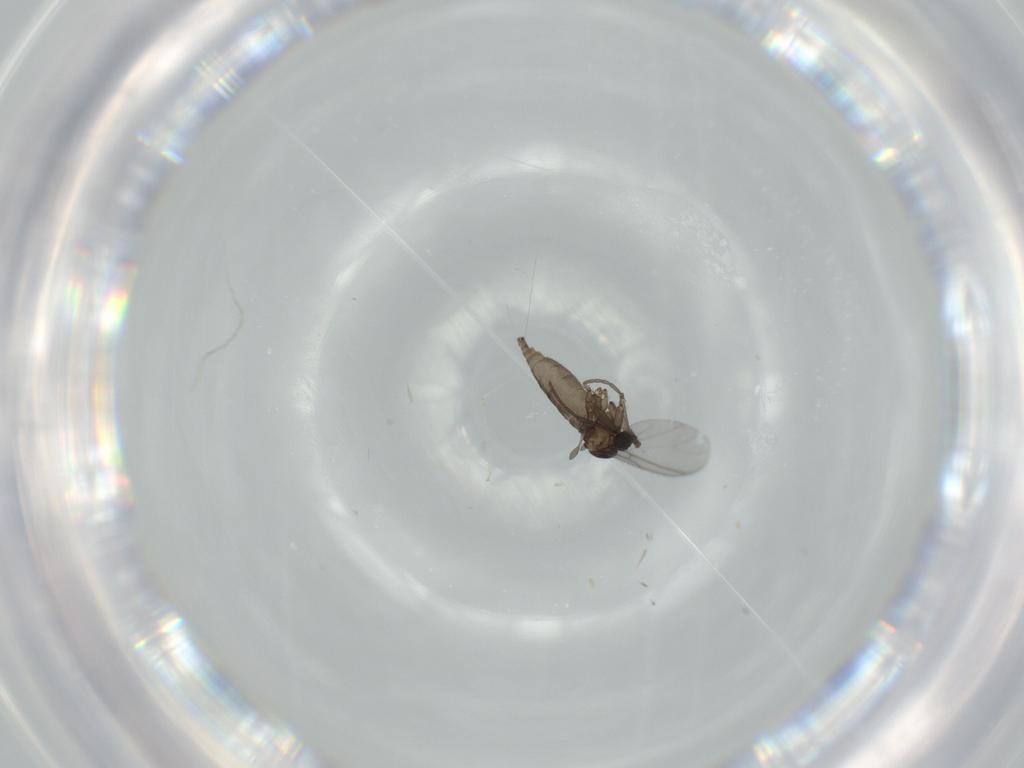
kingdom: Animalia
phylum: Arthropoda
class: Insecta
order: Diptera
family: Sciaridae
